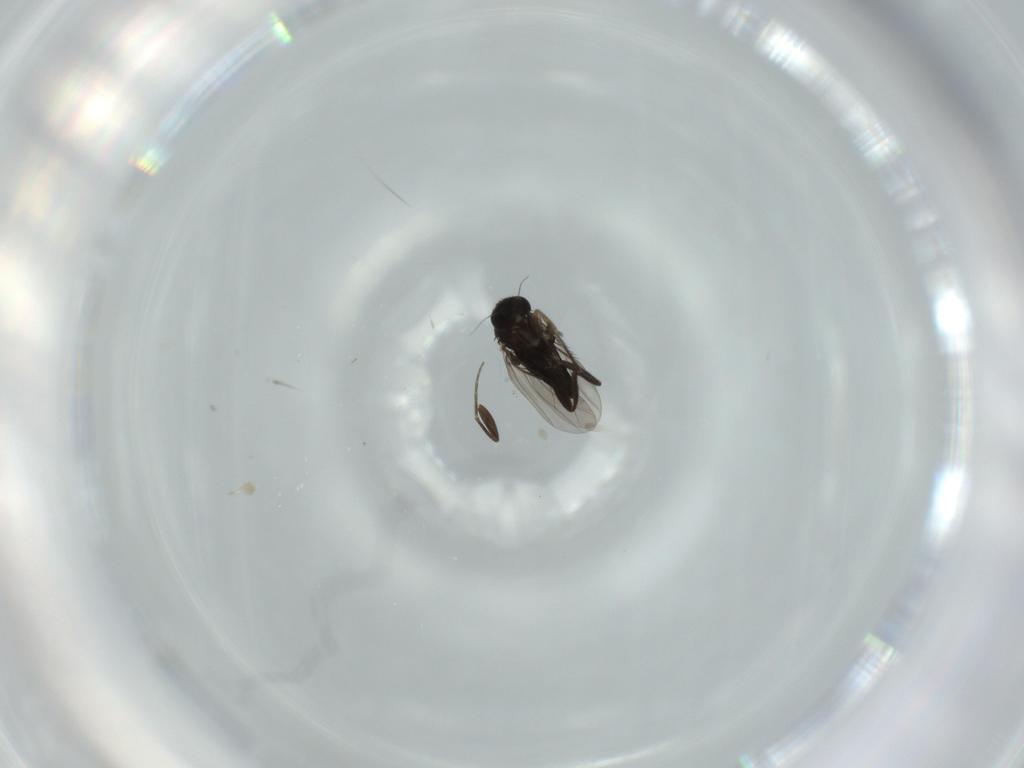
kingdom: Animalia
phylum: Arthropoda
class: Insecta
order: Diptera
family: Phoridae
